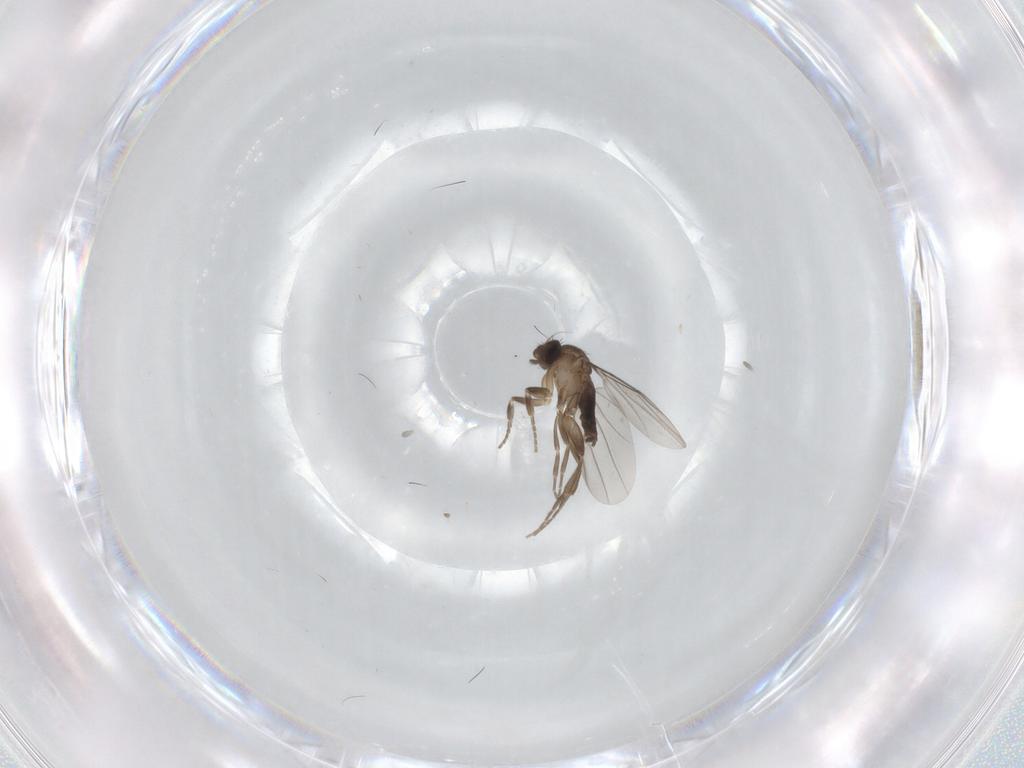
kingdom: Animalia
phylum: Arthropoda
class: Insecta
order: Diptera
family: Phoridae
